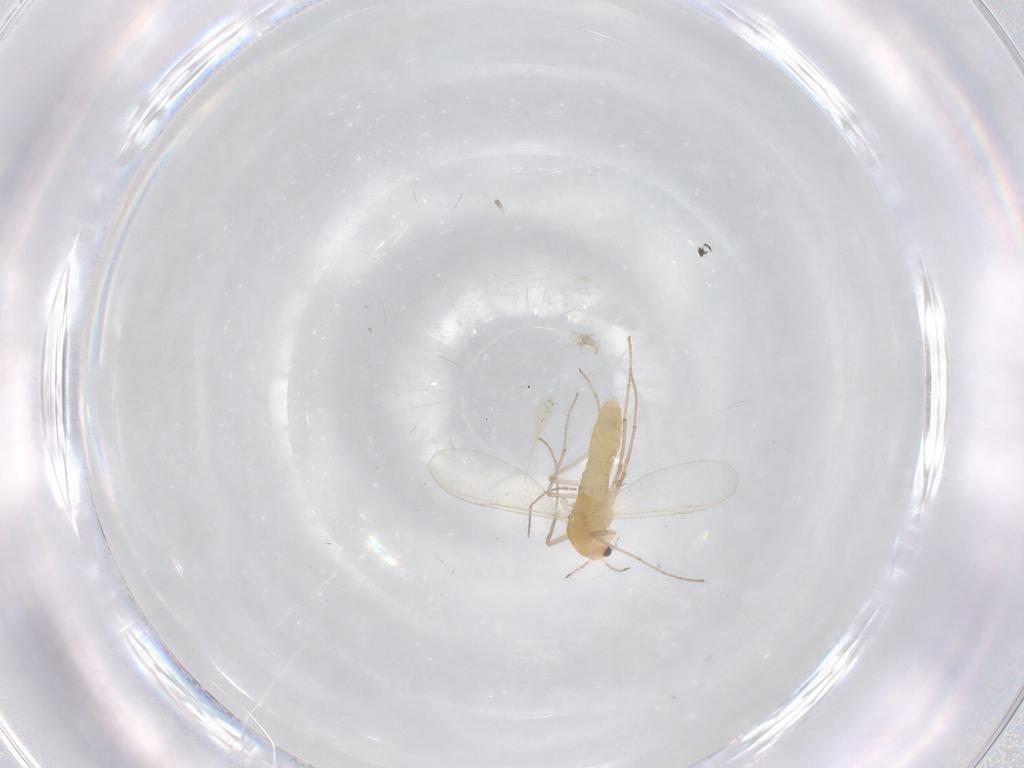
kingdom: Animalia
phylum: Arthropoda
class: Insecta
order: Diptera
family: Chironomidae
